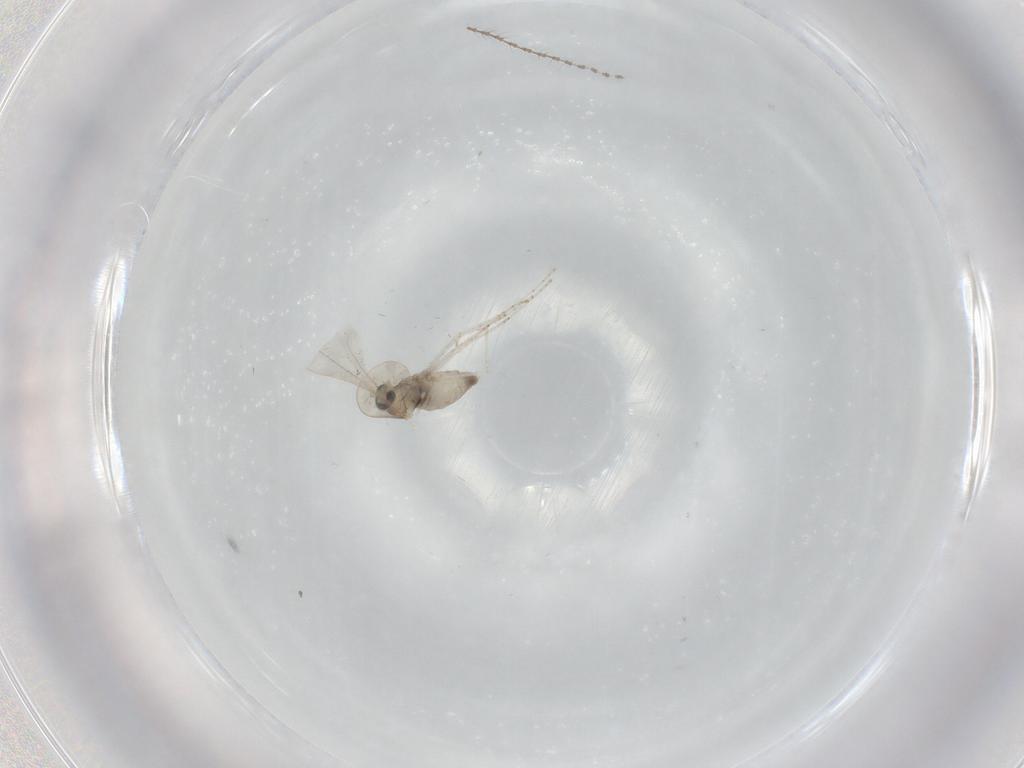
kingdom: Animalia
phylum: Arthropoda
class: Insecta
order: Diptera
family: Cecidomyiidae
